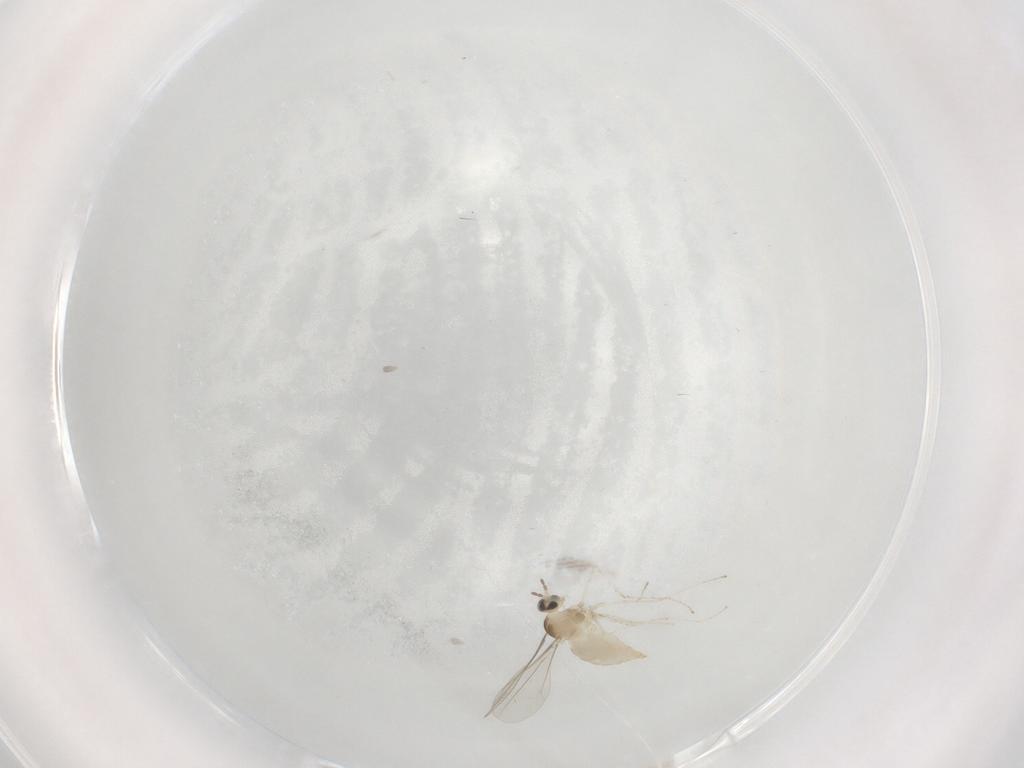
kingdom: Animalia
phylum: Arthropoda
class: Insecta
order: Diptera
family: Cecidomyiidae
